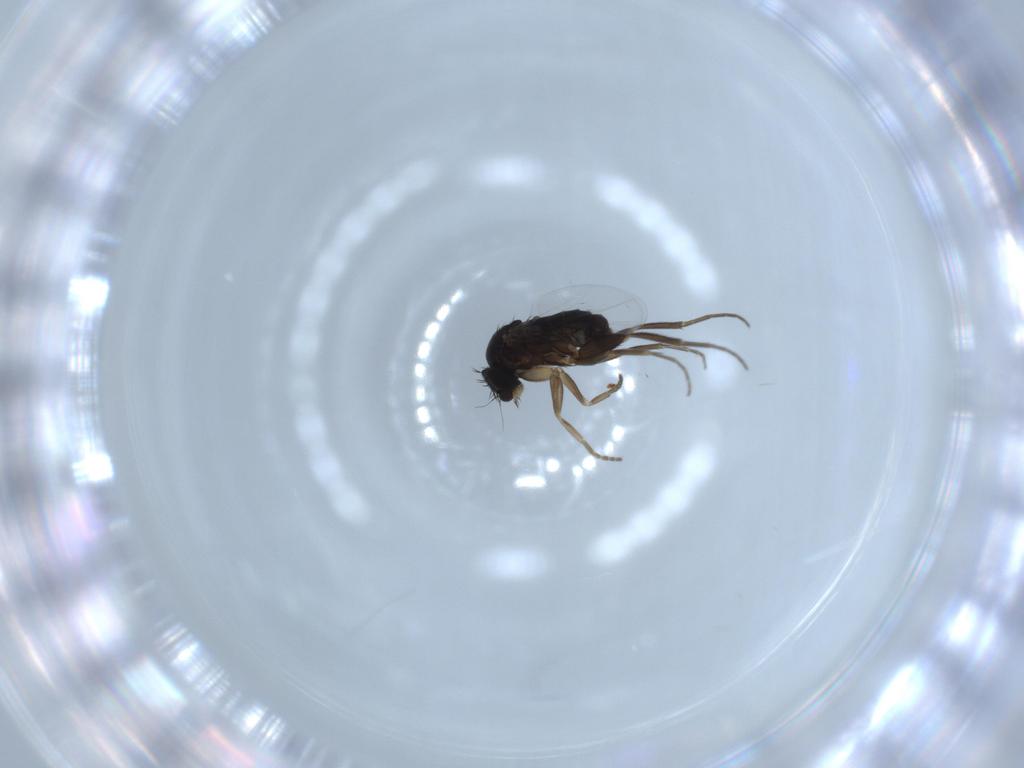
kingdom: Animalia
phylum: Arthropoda
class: Insecta
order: Diptera
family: Phoridae
